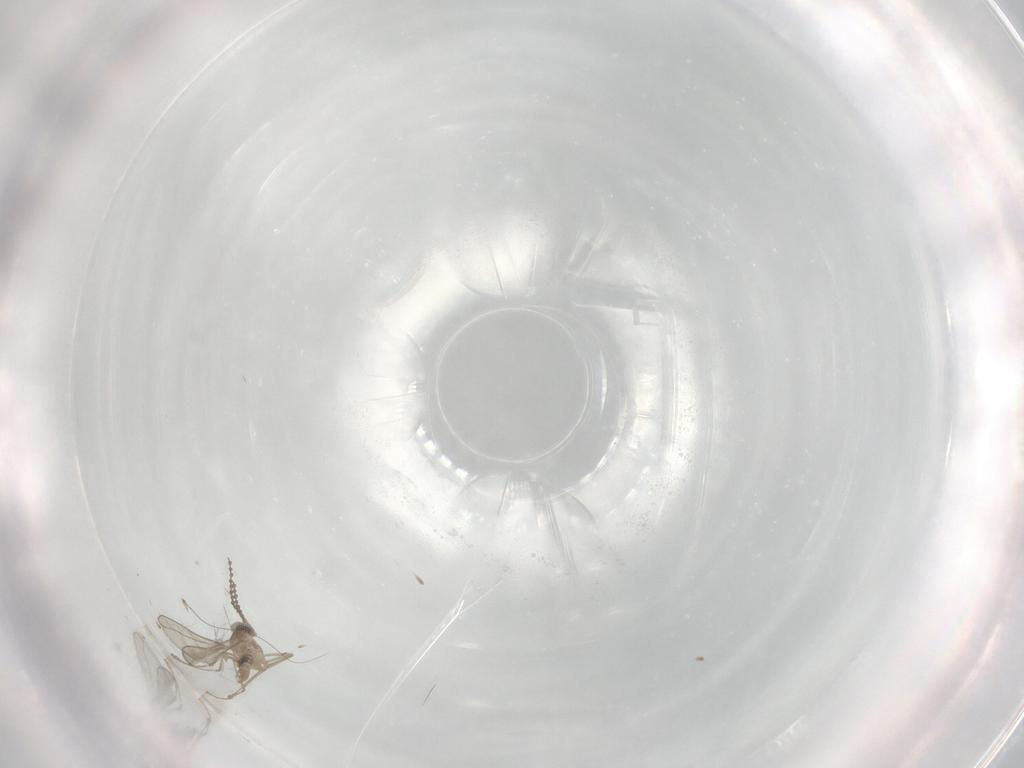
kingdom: Animalia
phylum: Arthropoda
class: Insecta
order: Diptera
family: Cecidomyiidae
